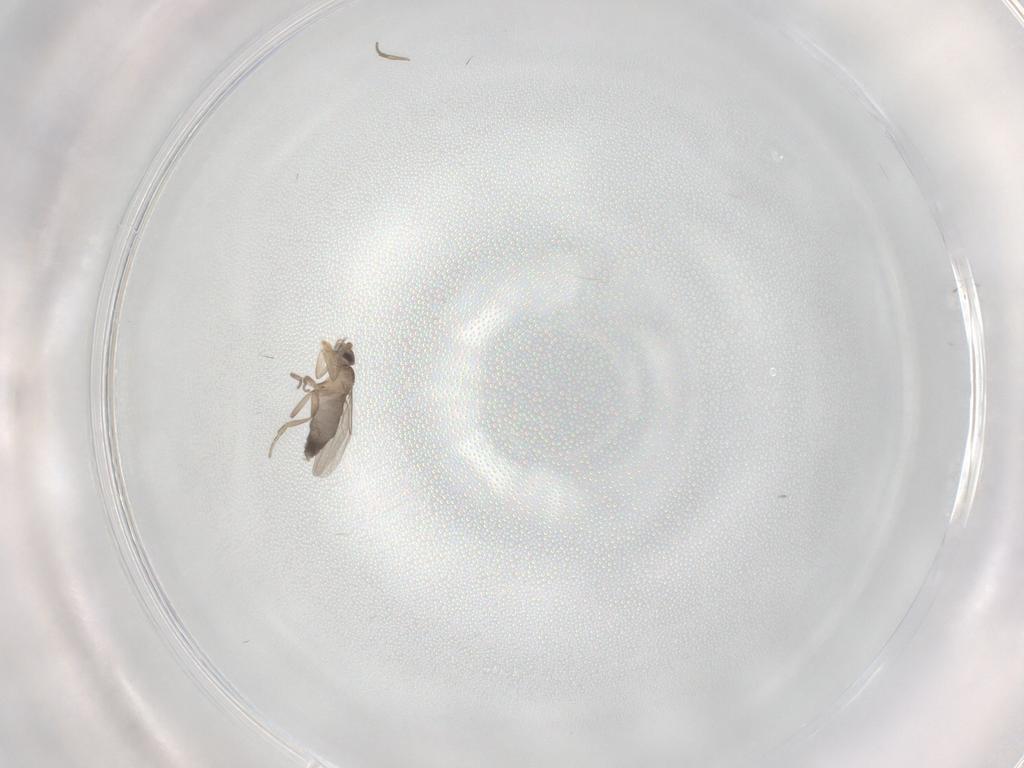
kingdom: Animalia
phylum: Arthropoda
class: Insecta
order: Diptera
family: Phoridae
